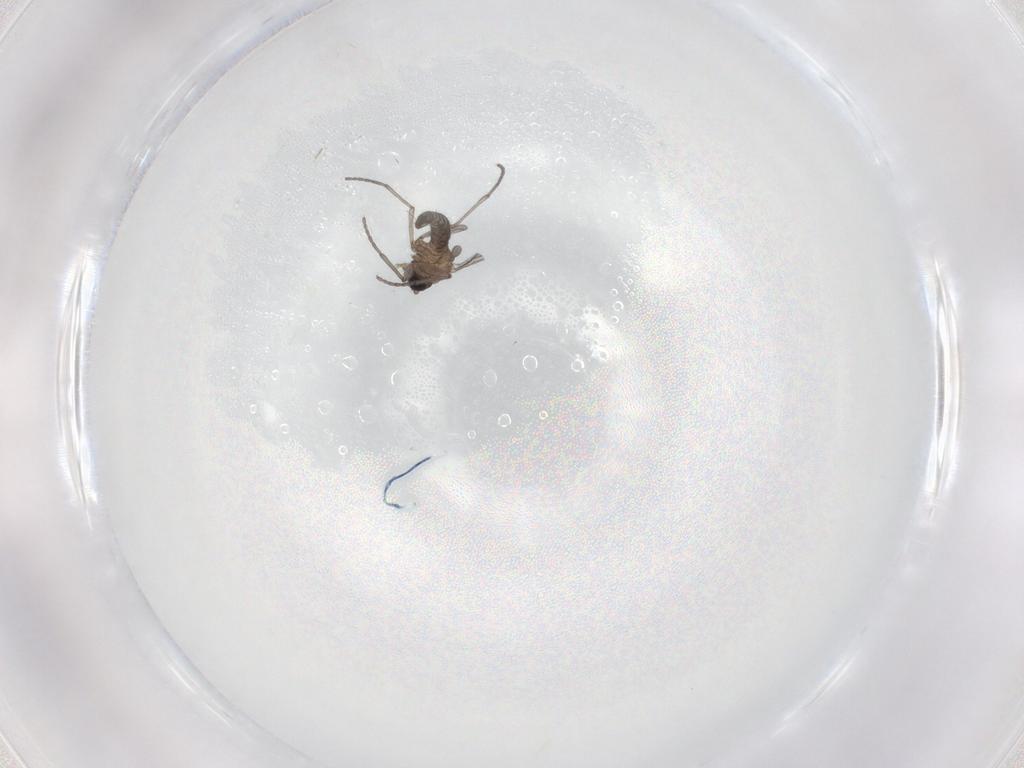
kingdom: Animalia
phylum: Arthropoda
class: Insecta
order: Diptera
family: Sciaridae
